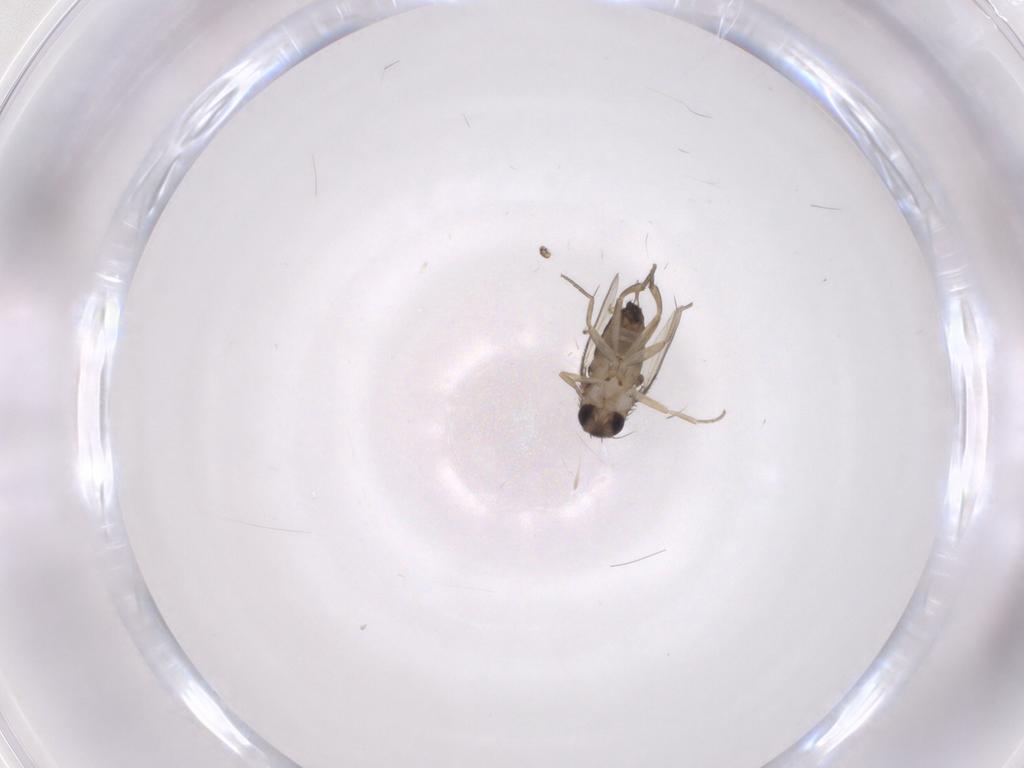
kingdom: Animalia
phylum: Arthropoda
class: Insecta
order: Diptera
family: Phoridae
